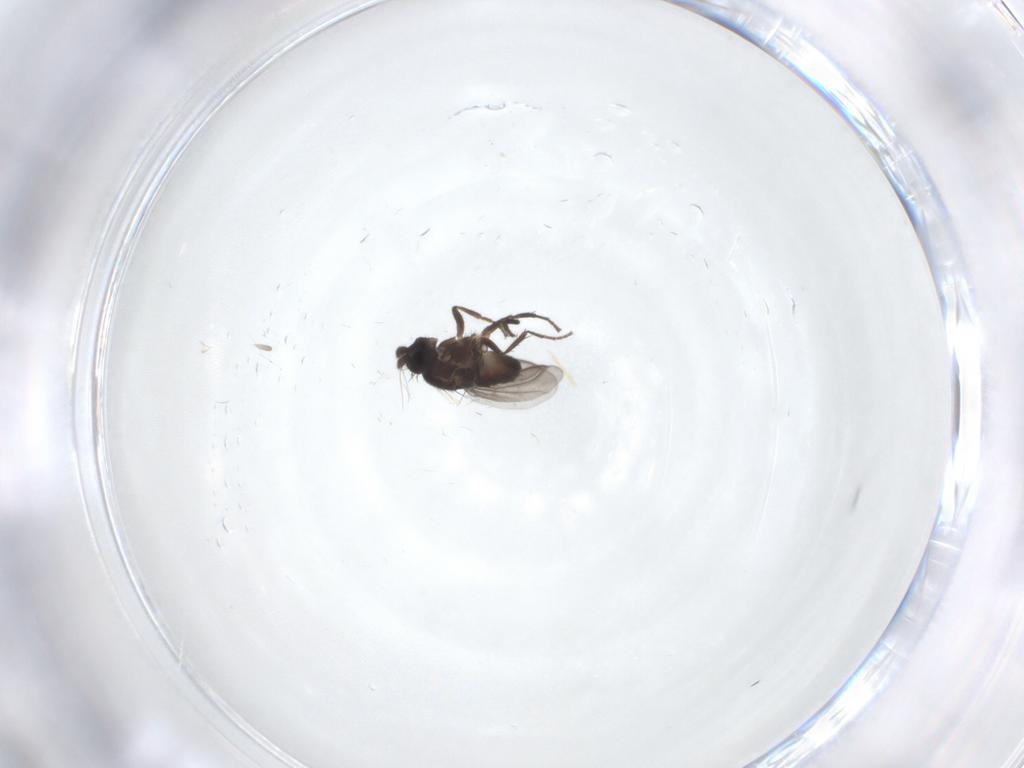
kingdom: Animalia
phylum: Arthropoda
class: Insecta
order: Diptera
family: Sphaeroceridae
